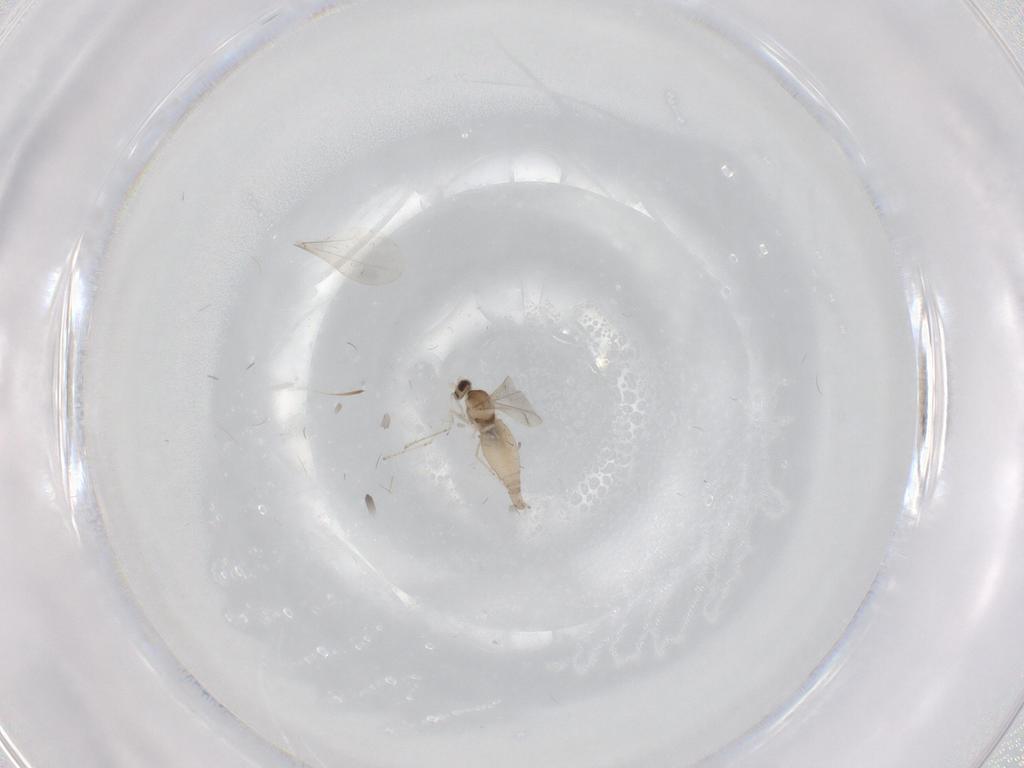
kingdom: Animalia
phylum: Arthropoda
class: Insecta
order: Diptera
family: Cecidomyiidae
